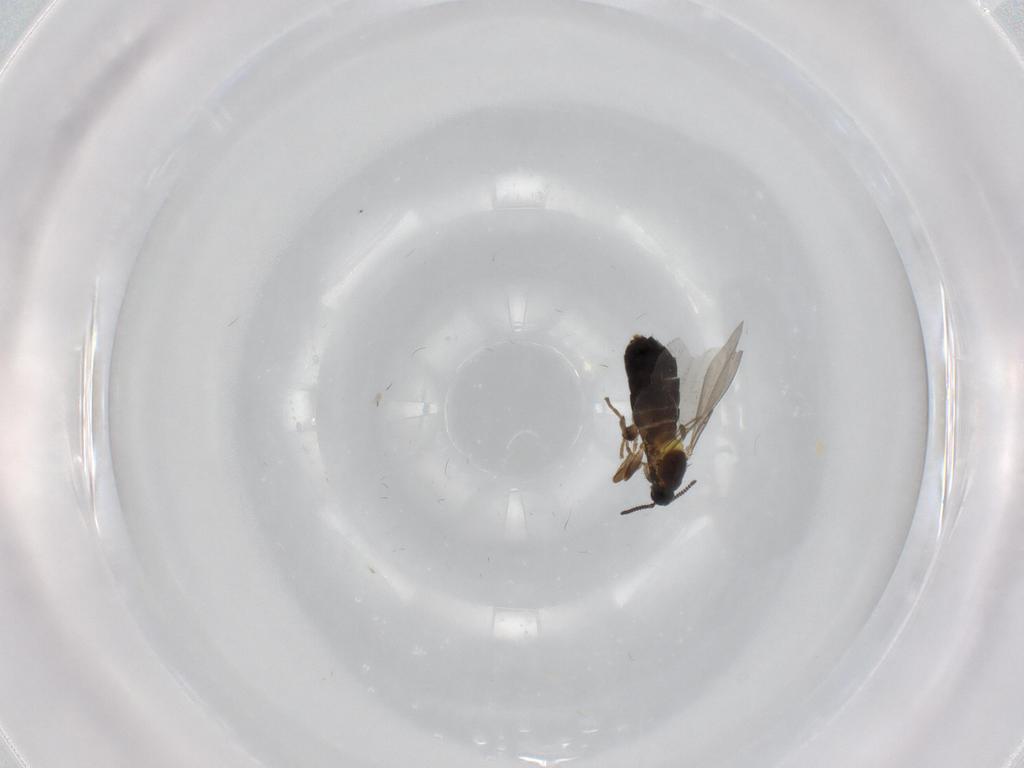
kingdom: Animalia
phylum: Arthropoda
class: Insecta
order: Diptera
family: Scatopsidae
